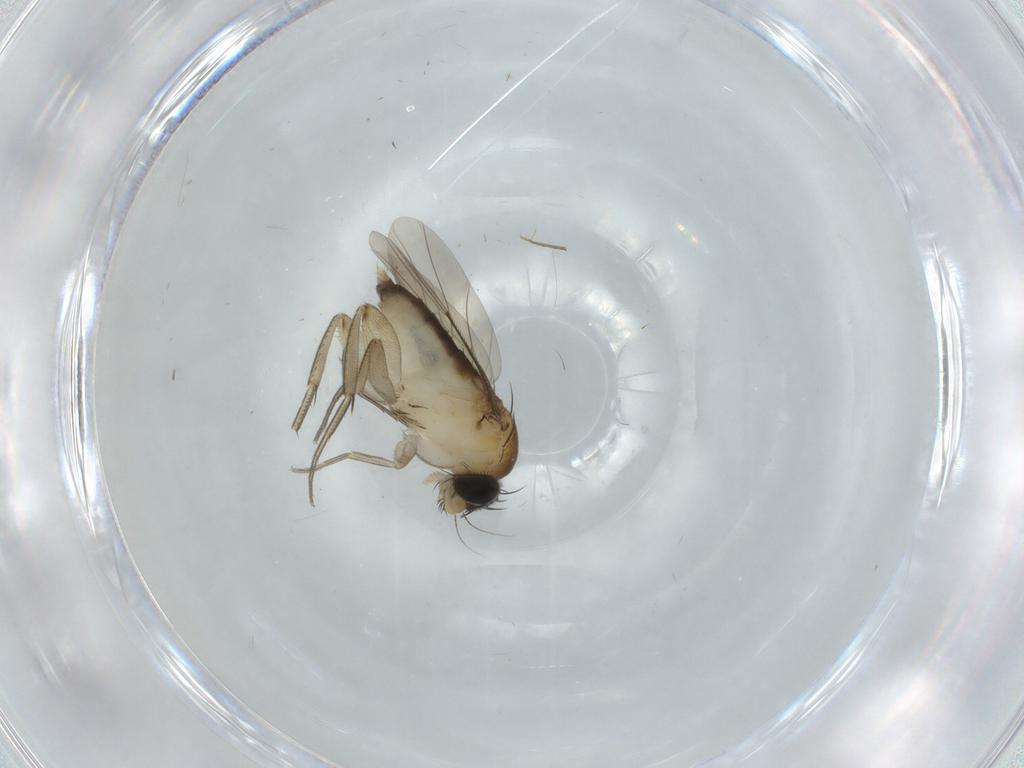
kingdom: Animalia
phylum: Arthropoda
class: Insecta
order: Diptera
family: Phoridae
